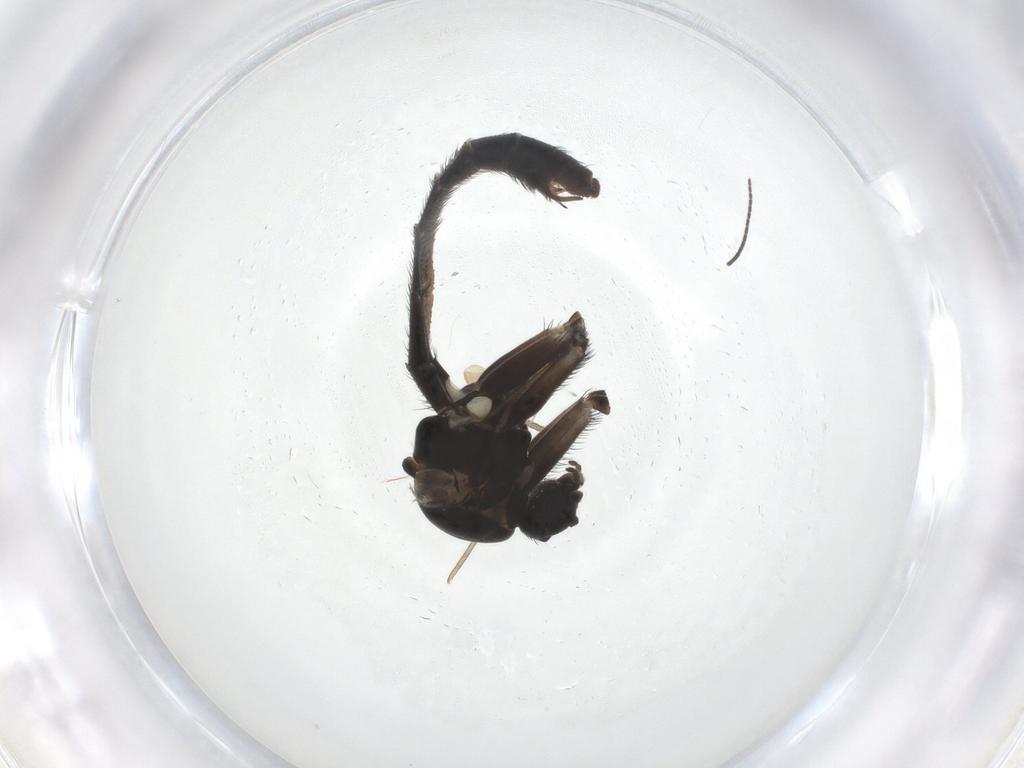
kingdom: Animalia
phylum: Arthropoda
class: Insecta
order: Diptera
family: Sciaridae
